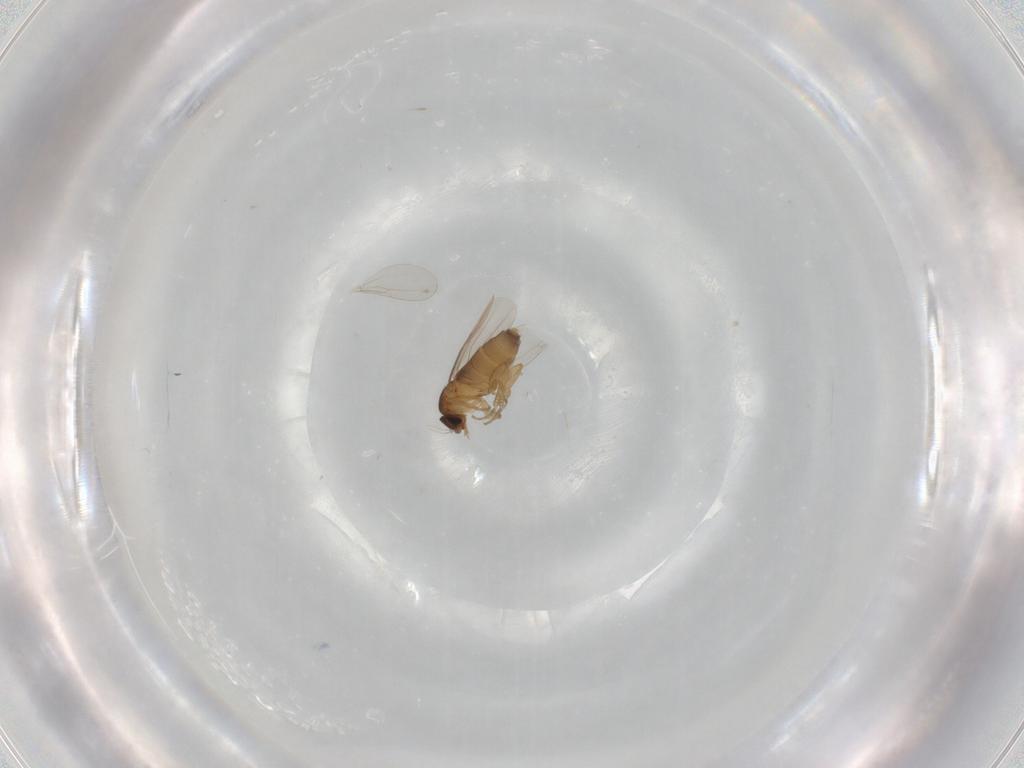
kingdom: Animalia
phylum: Arthropoda
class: Insecta
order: Diptera
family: Cecidomyiidae
